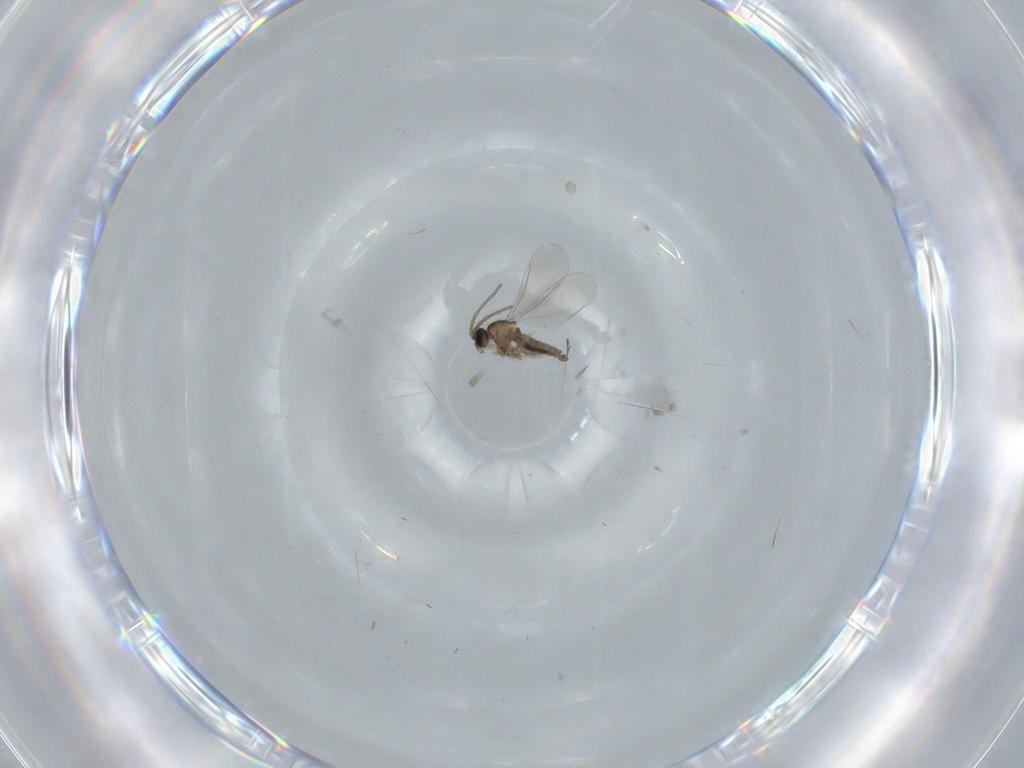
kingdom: Animalia
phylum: Arthropoda
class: Insecta
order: Diptera
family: Cecidomyiidae
